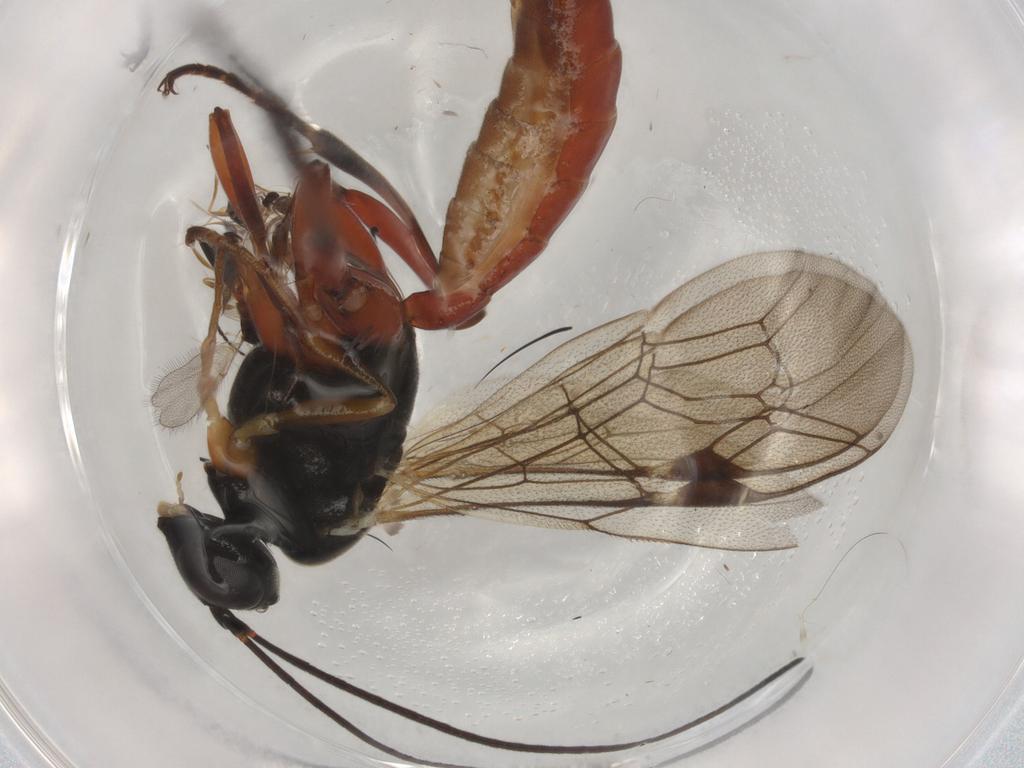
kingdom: Animalia
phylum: Arthropoda
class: Insecta
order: Hymenoptera
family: Ichneumonidae
